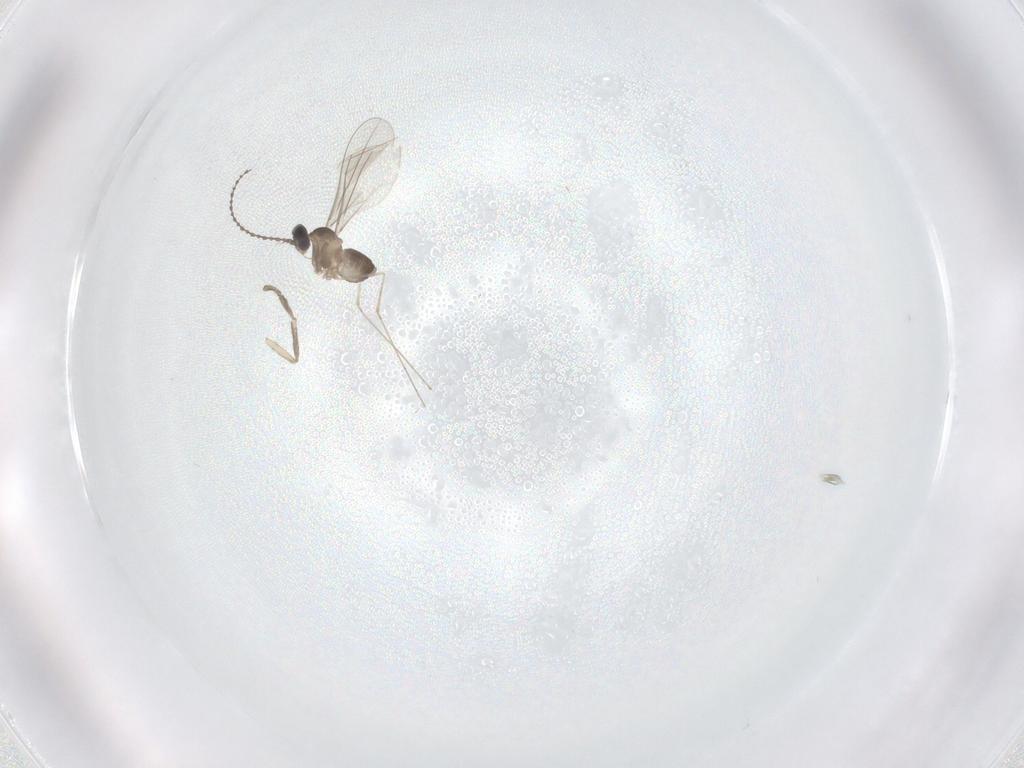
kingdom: Animalia
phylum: Arthropoda
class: Insecta
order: Diptera
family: Cecidomyiidae
